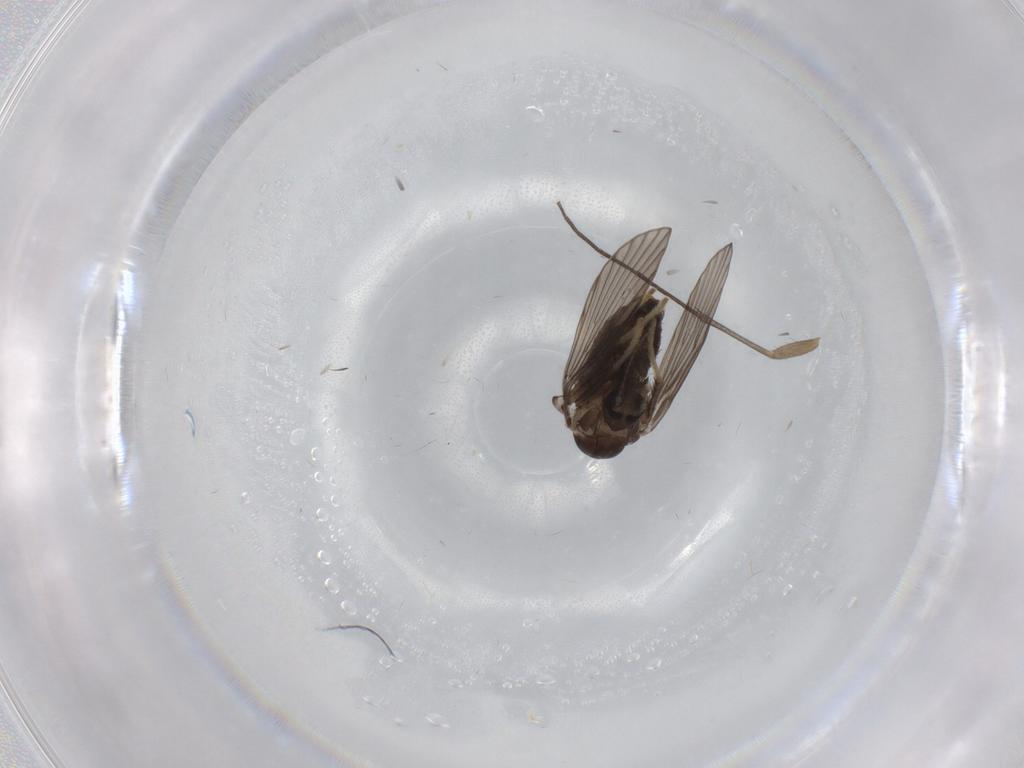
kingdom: Animalia
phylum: Arthropoda
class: Insecta
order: Diptera
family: Psychodidae
